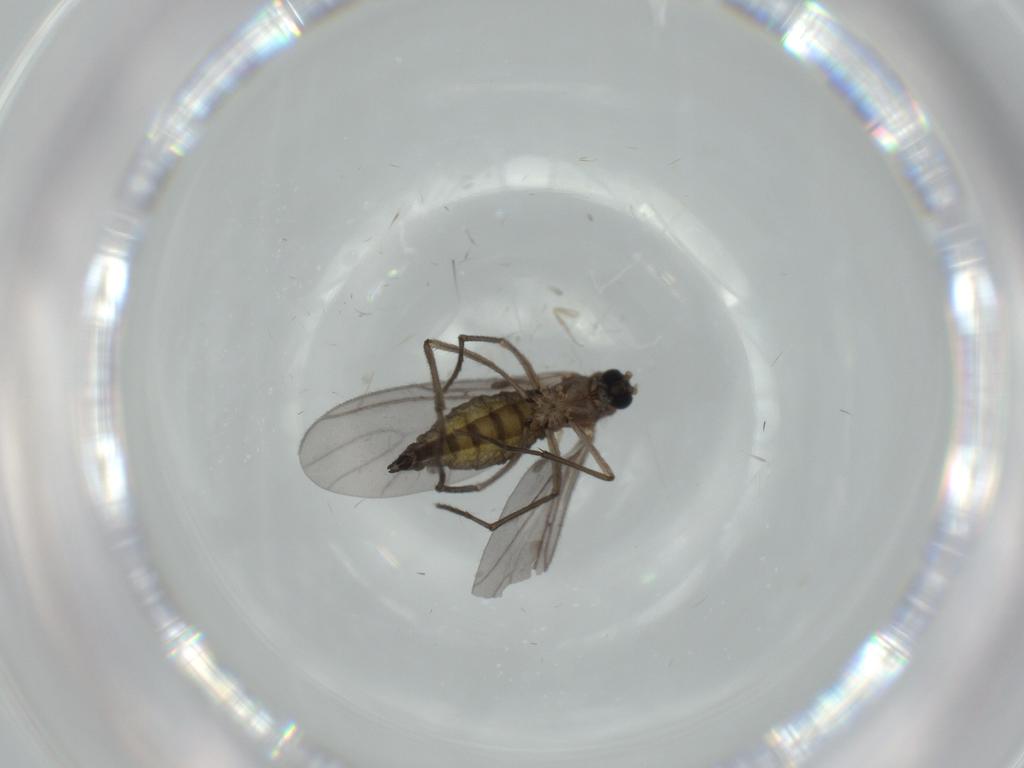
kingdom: Animalia
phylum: Arthropoda
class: Insecta
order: Diptera
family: Sciaridae
